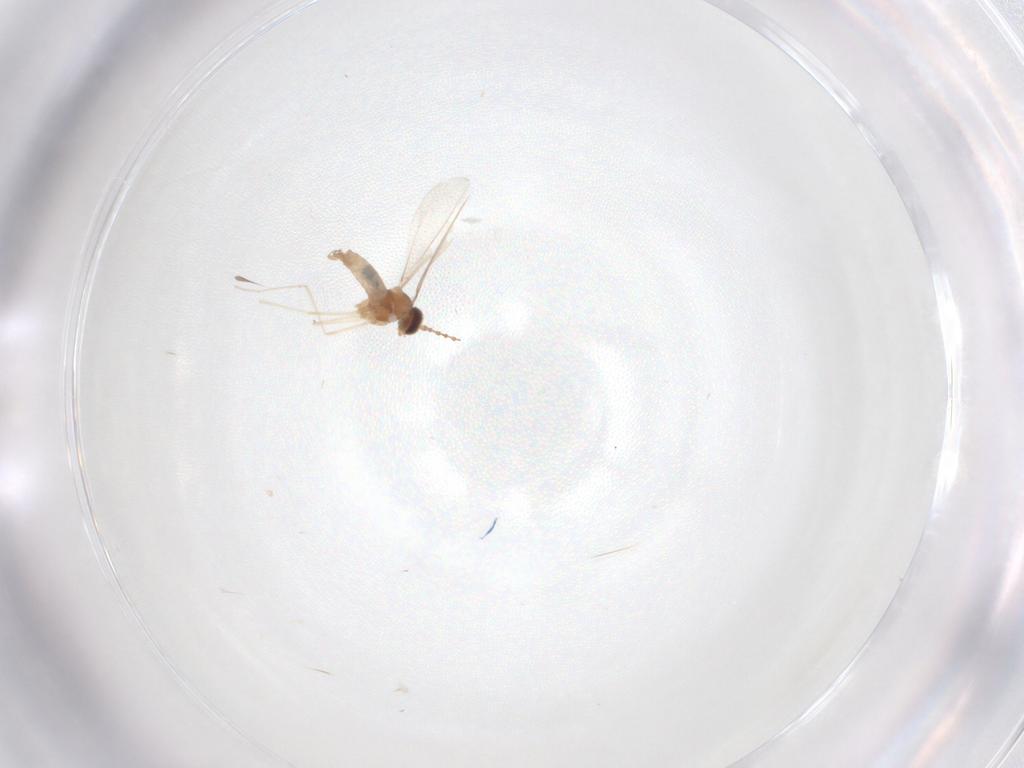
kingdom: Animalia
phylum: Arthropoda
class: Insecta
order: Diptera
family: Cecidomyiidae
